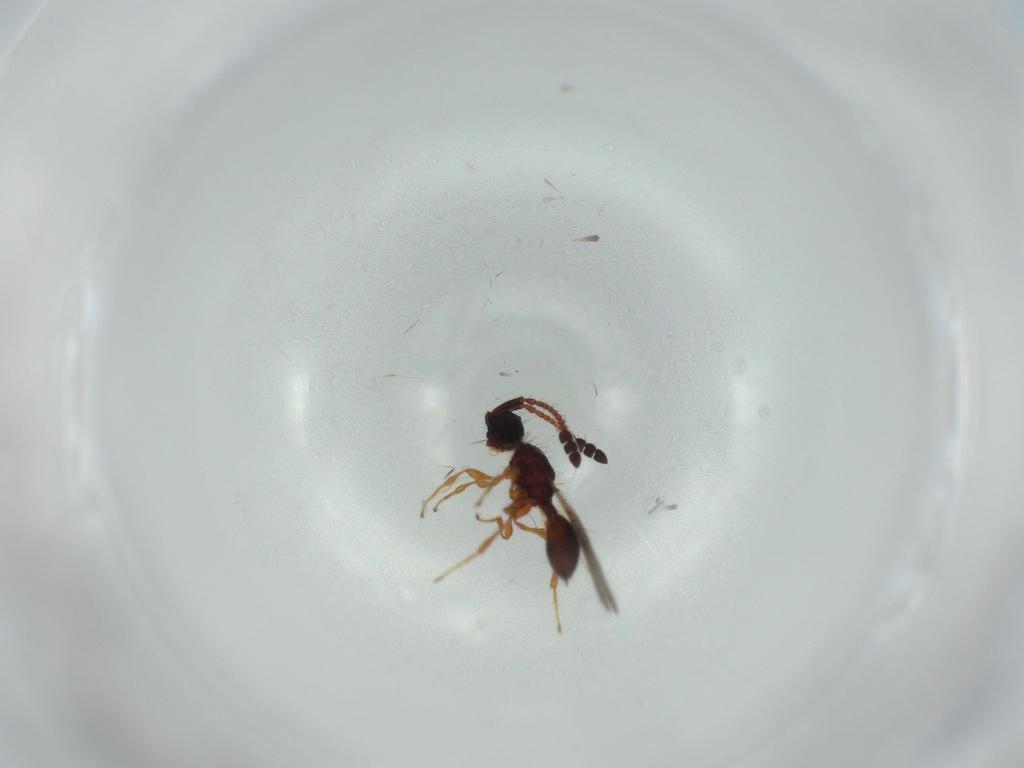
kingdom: Animalia
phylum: Arthropoda
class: Insecta
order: Hymenoptera
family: Diapriidae
